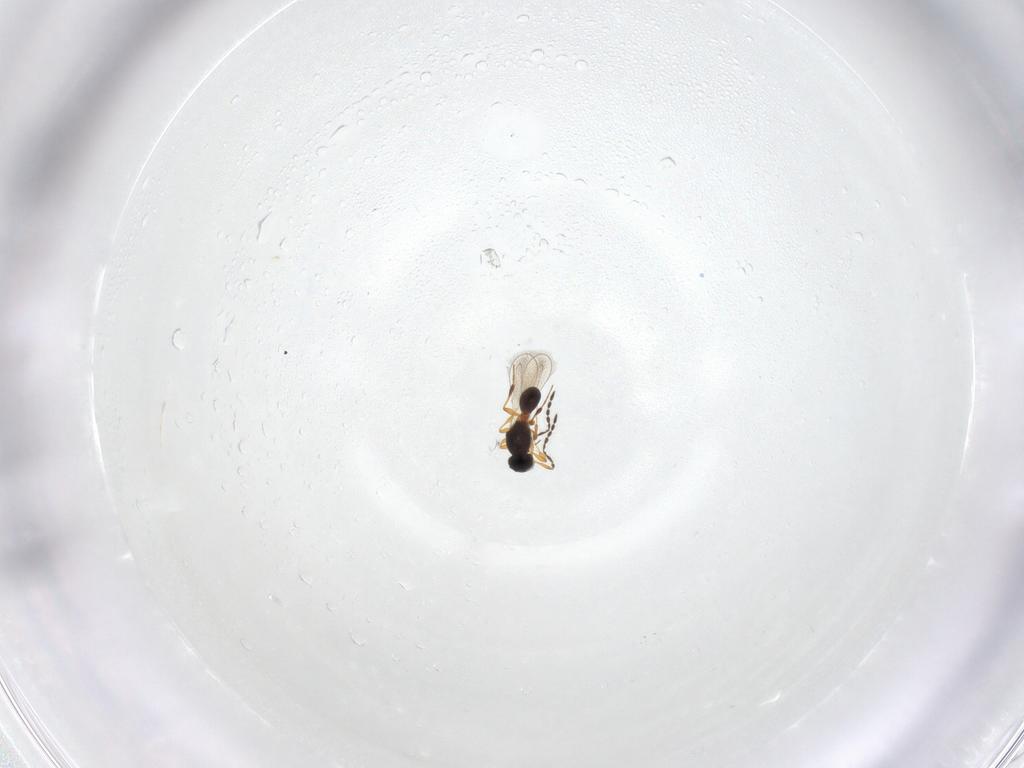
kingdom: Animalia
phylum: Arthropoda
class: Insecta
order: Hymenoptera
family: Platygastridae
